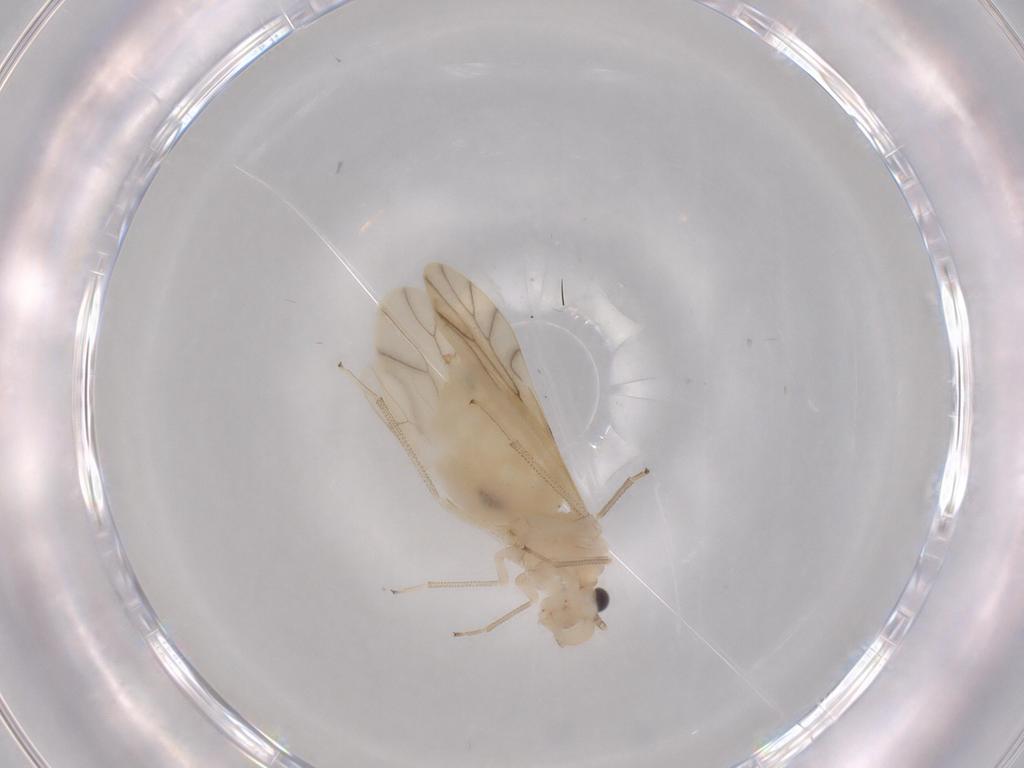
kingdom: Animalia
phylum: Arthropoda
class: Insecta
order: Psocodea
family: Caeciliusidae
